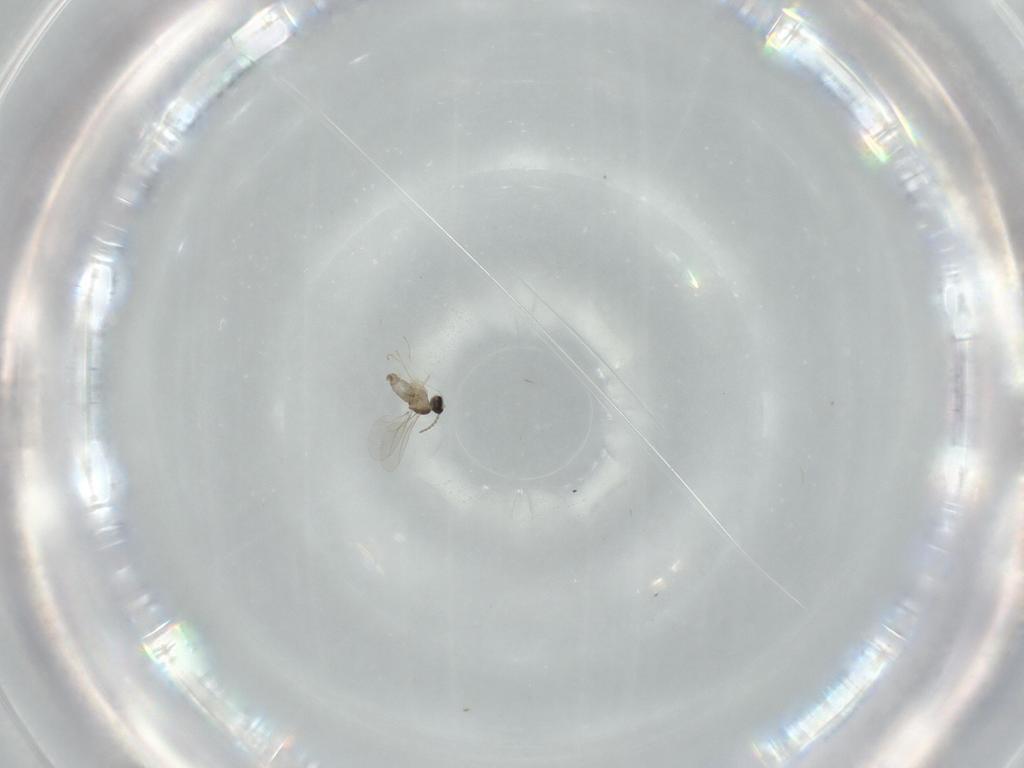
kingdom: Animalia
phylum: Arthropoda
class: Insecta
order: Diptera
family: Cecidomyiidae
